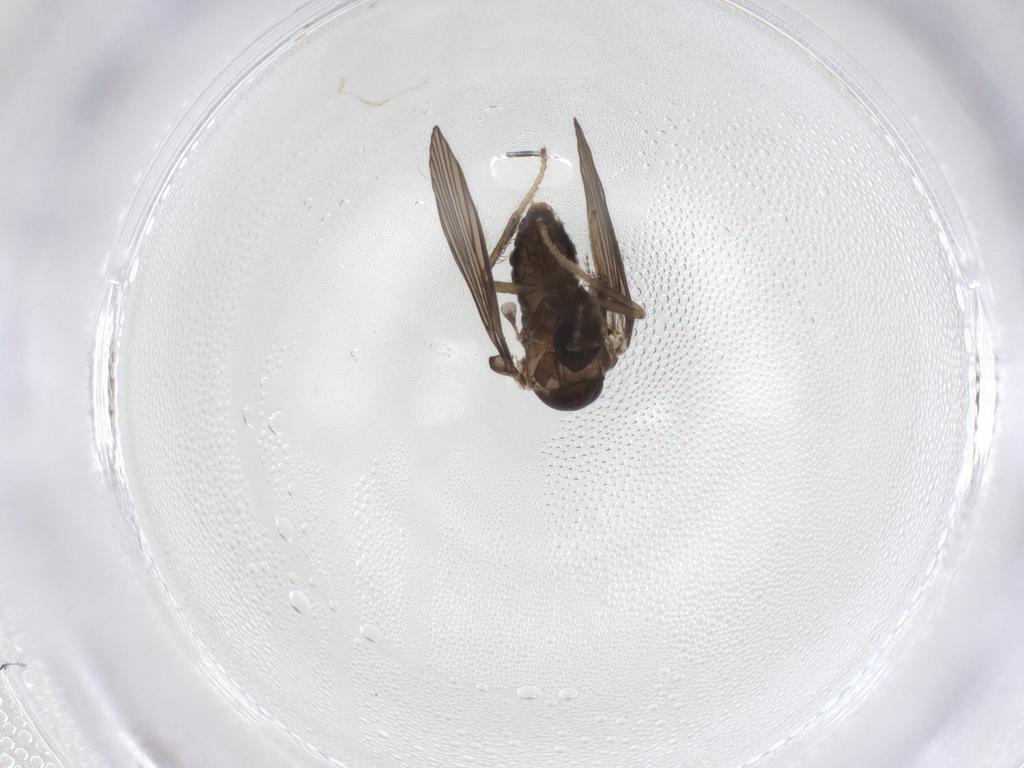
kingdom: Animalia
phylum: Arthropoda
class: Insecta
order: Diptera
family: Psychodidae
